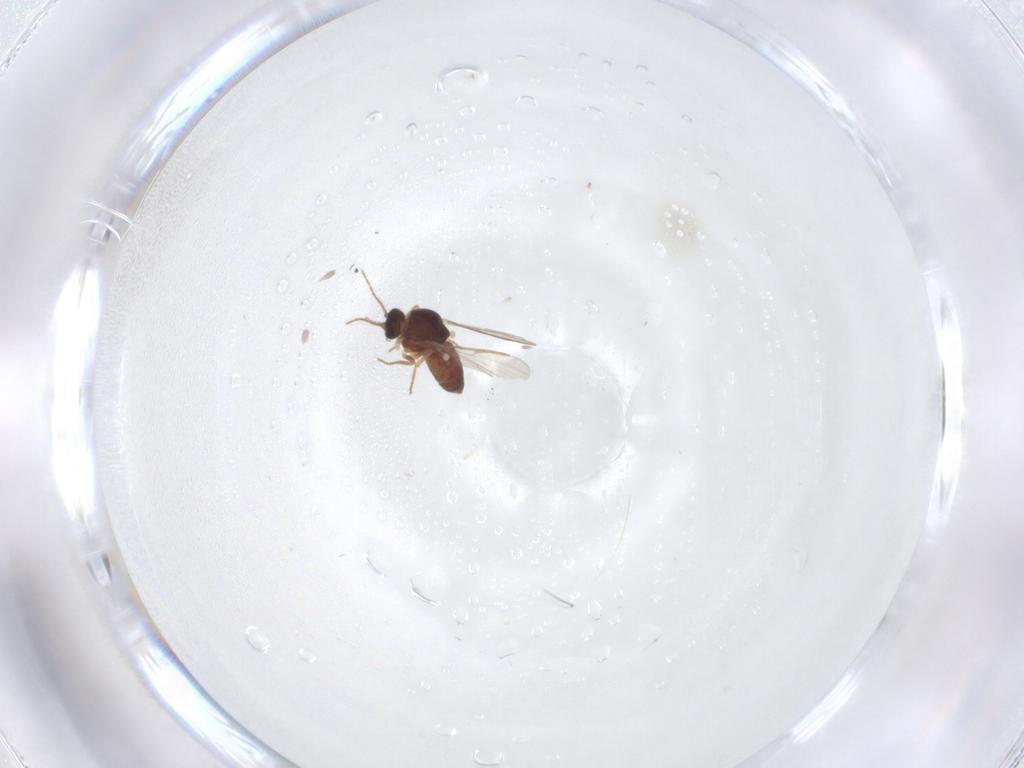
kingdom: Animalia
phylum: Arthropoda
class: Insecta
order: Diptera
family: Ceratopogonidae
